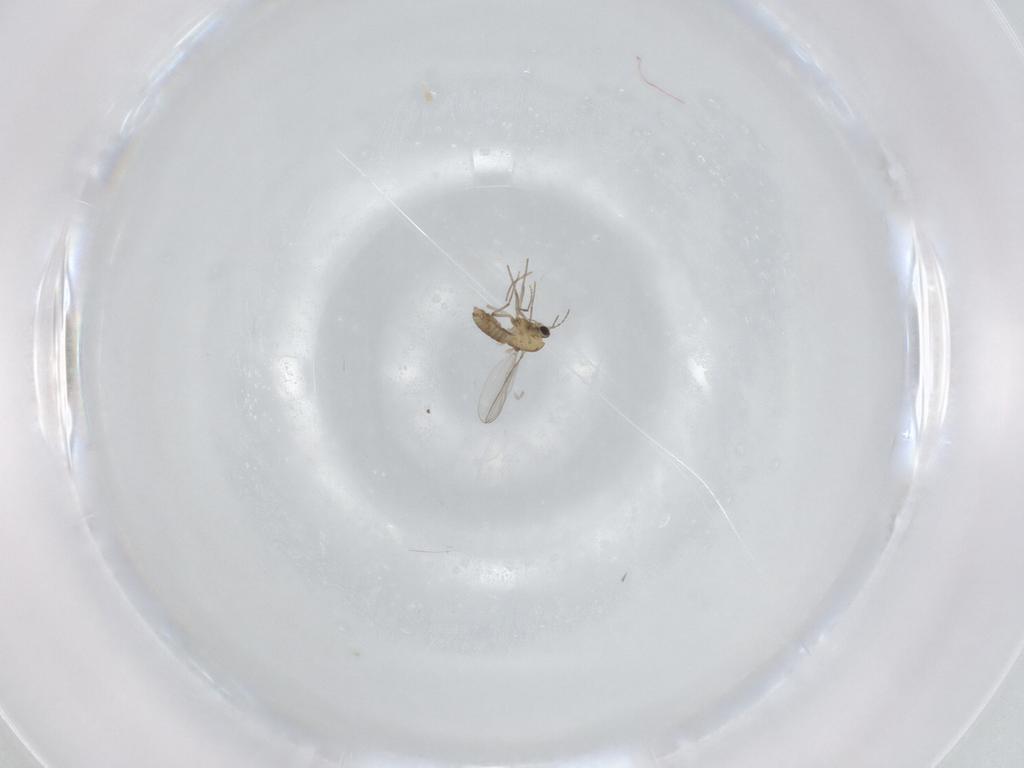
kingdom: Animalia
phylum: Arthropoda
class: Insecta
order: Diptera
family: Chironomidae
